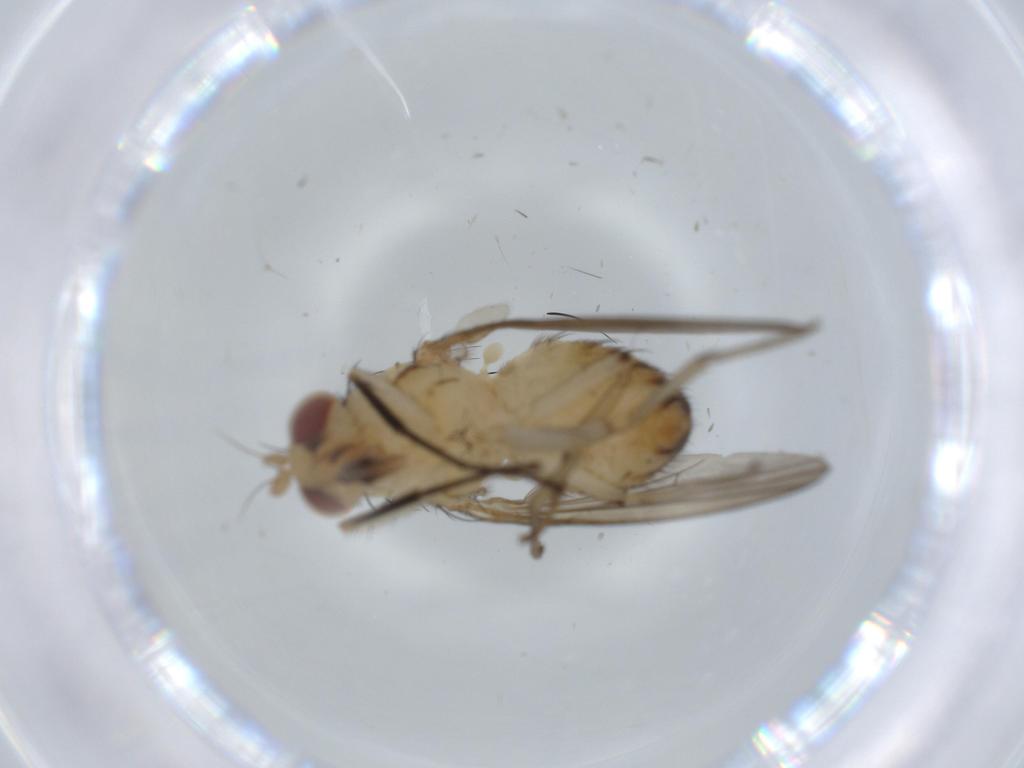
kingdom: Animalia
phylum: Arthropoda
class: Insecta
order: Diptera
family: Lauxaniidae
